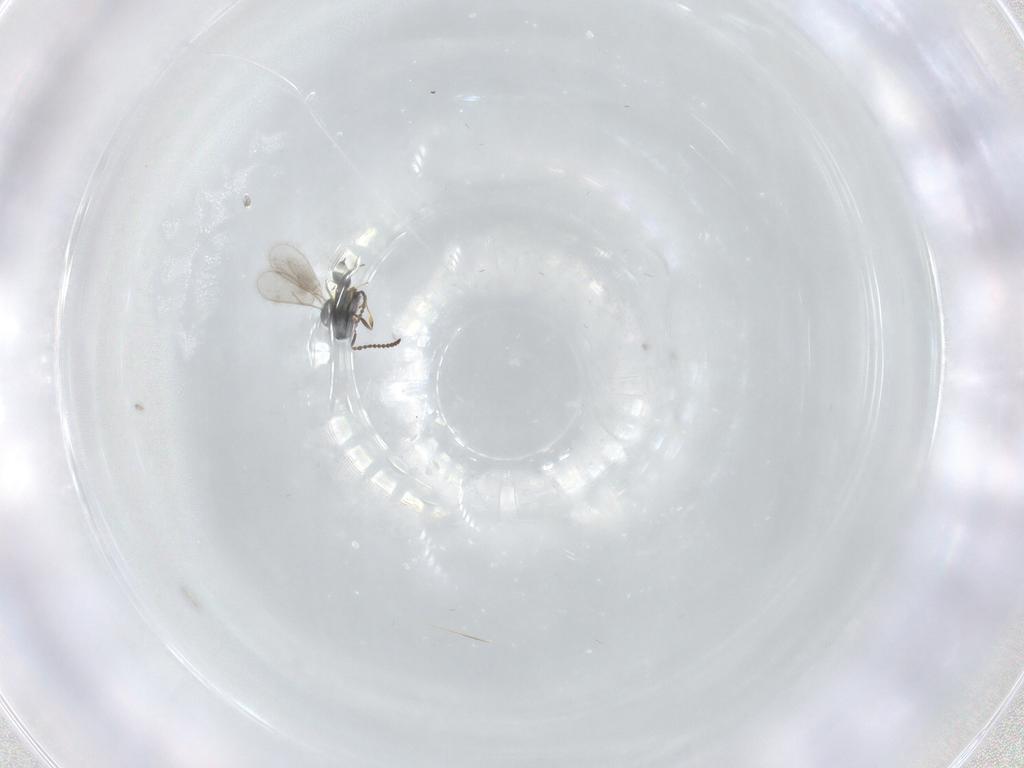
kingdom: Animalia
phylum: Arthropoda
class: Insecta
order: Hymenoptera
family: Scelionidae
